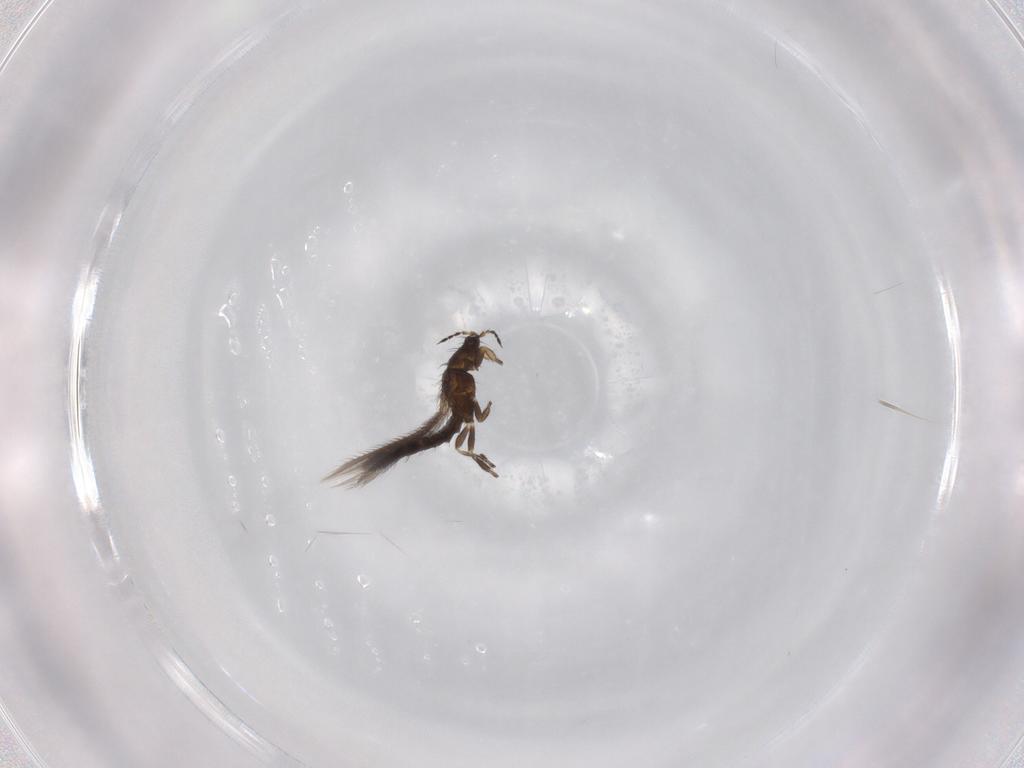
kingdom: Animalia
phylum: Arthropoda
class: Insecta
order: Thysanoptera
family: Thripidae
